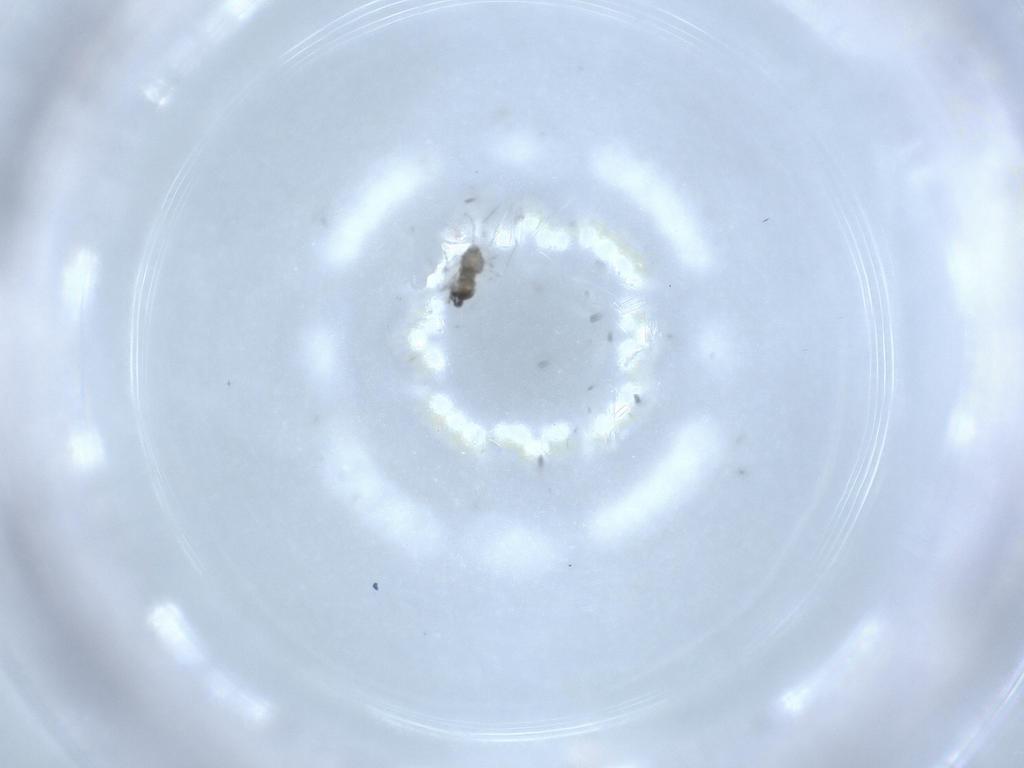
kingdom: Animalia
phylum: Arthropoda
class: Insecta
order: Diptera
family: Cecidomyiidae
